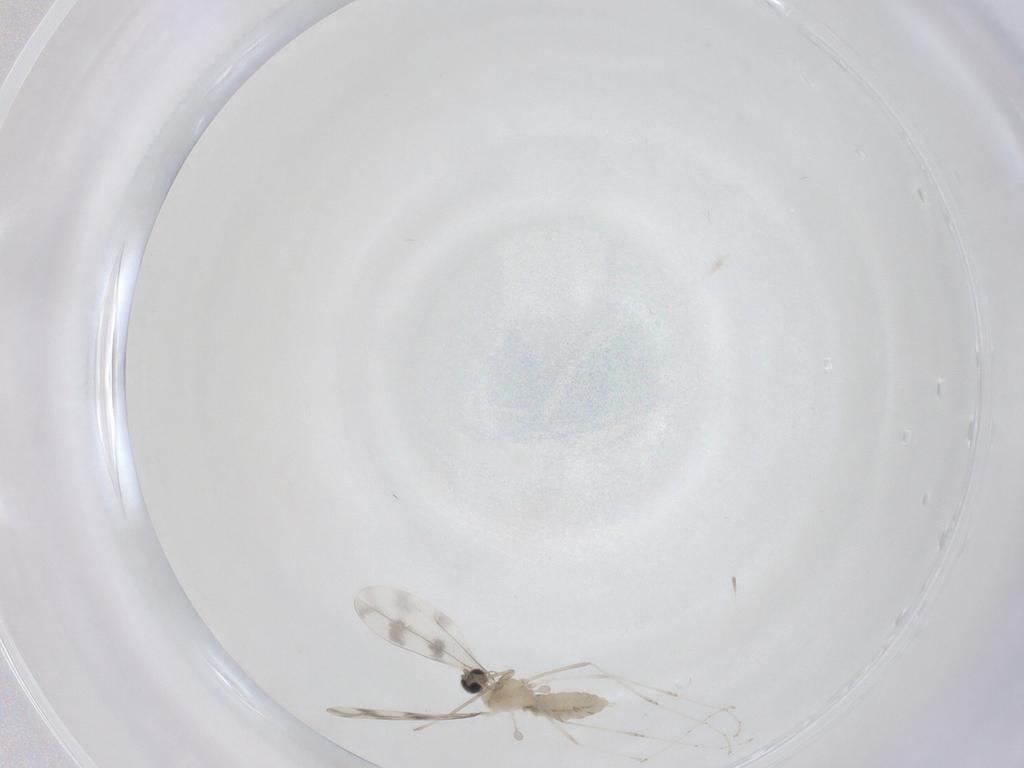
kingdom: Animalia
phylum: Arthropoda
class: Insecta
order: Diptera
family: Cecidomyiidae
